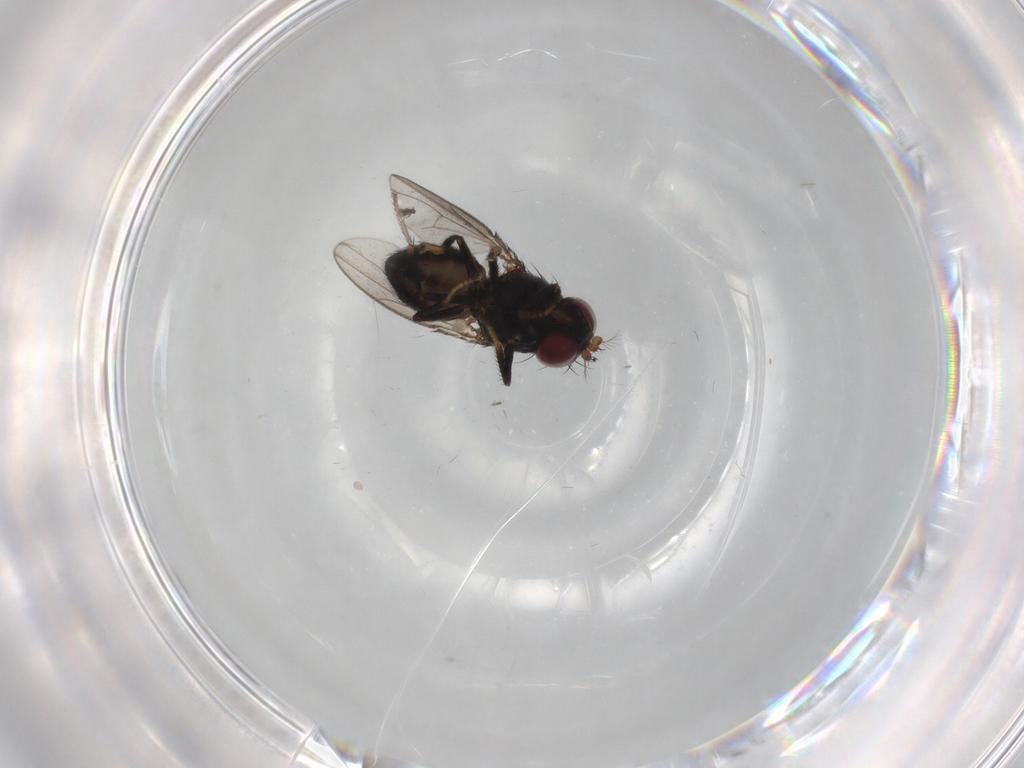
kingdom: Animalia
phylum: Arthropoda
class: Insecta
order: Diptera
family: Ephydridae
